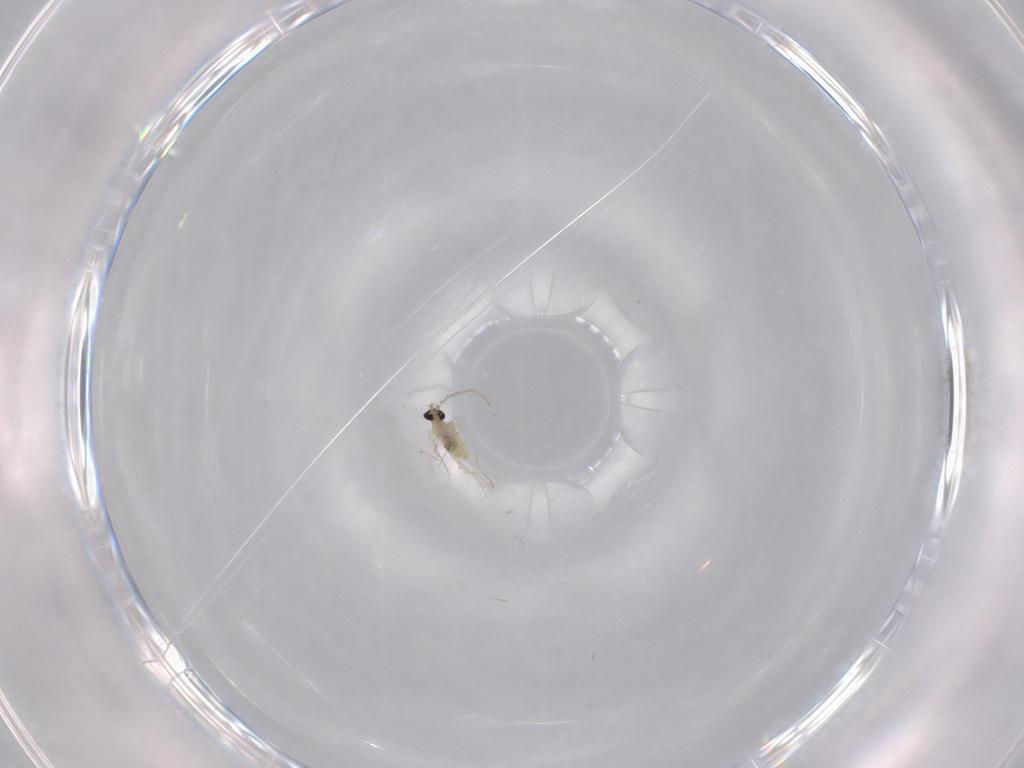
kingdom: Animalia
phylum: Arthropoda
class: Insecta
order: Diptera
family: Cecidomyiidae
